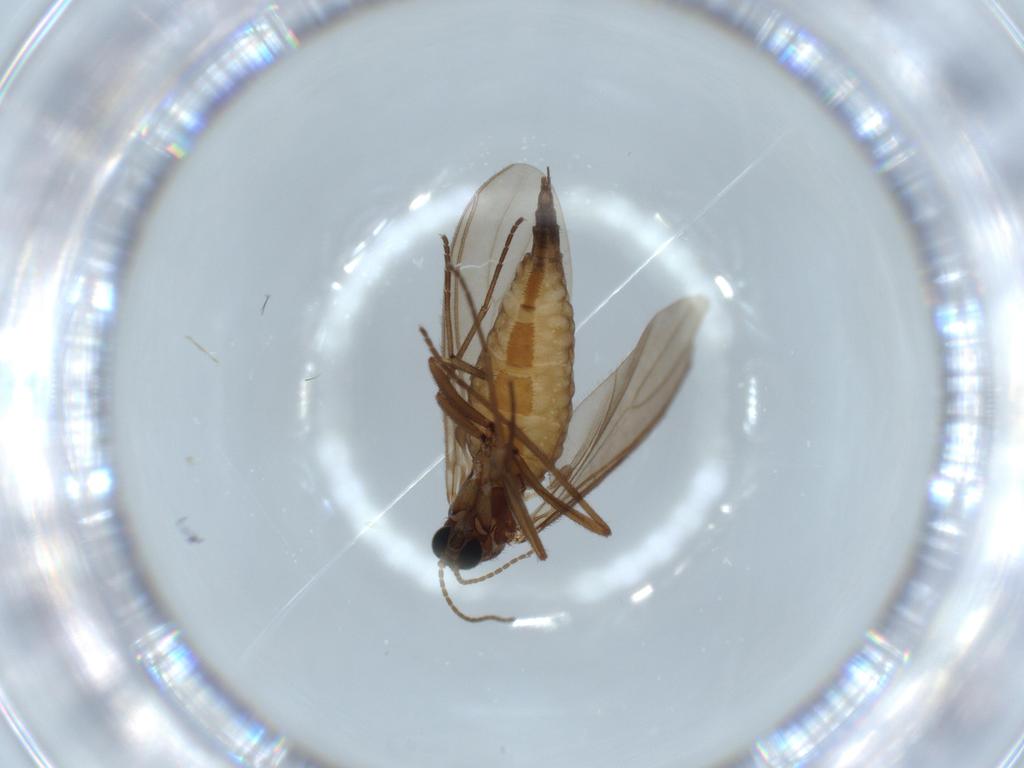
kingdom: Animalia
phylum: Arthropoda
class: Insecta
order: Diptera
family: Sciaridae
